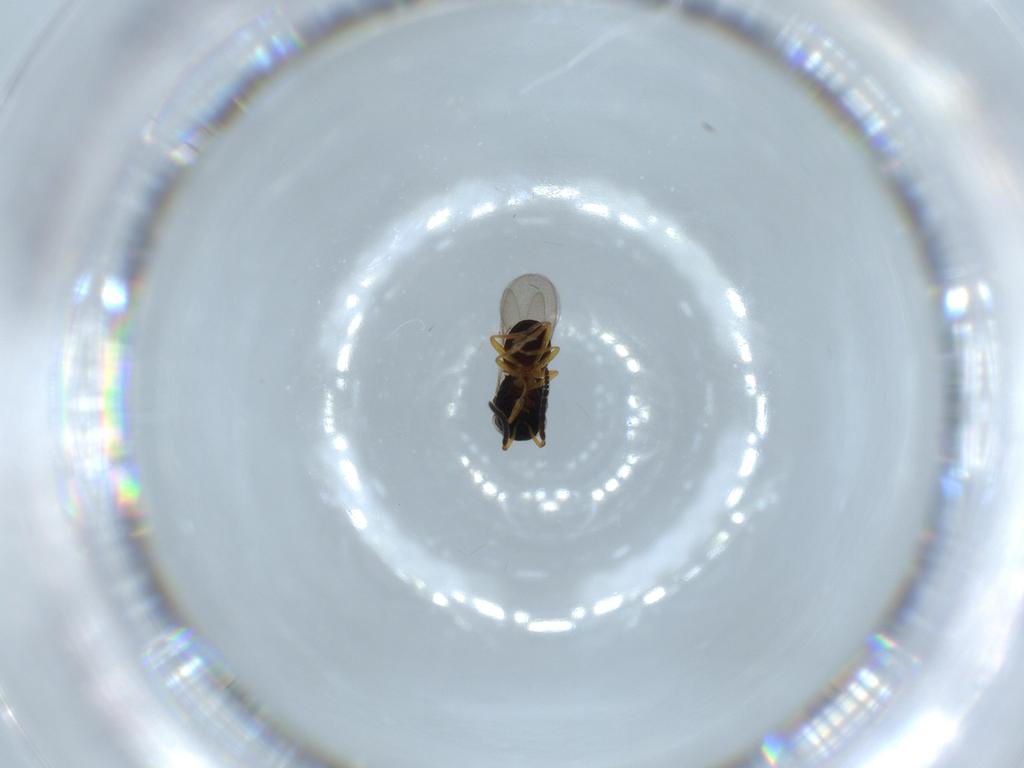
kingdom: Animalia
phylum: Arthropoda
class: Insecta
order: Coleoptera
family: Curculionidae
